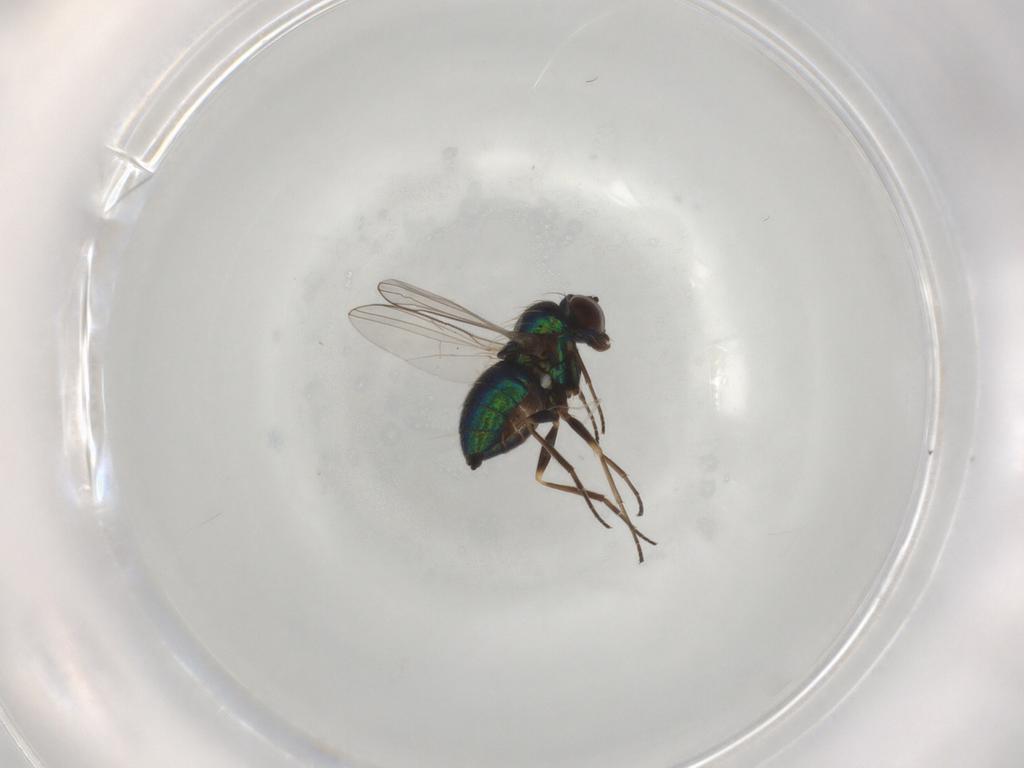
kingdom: Animalia
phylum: Arthropoda
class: Insecta
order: Diptera
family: Dolichopodidae
